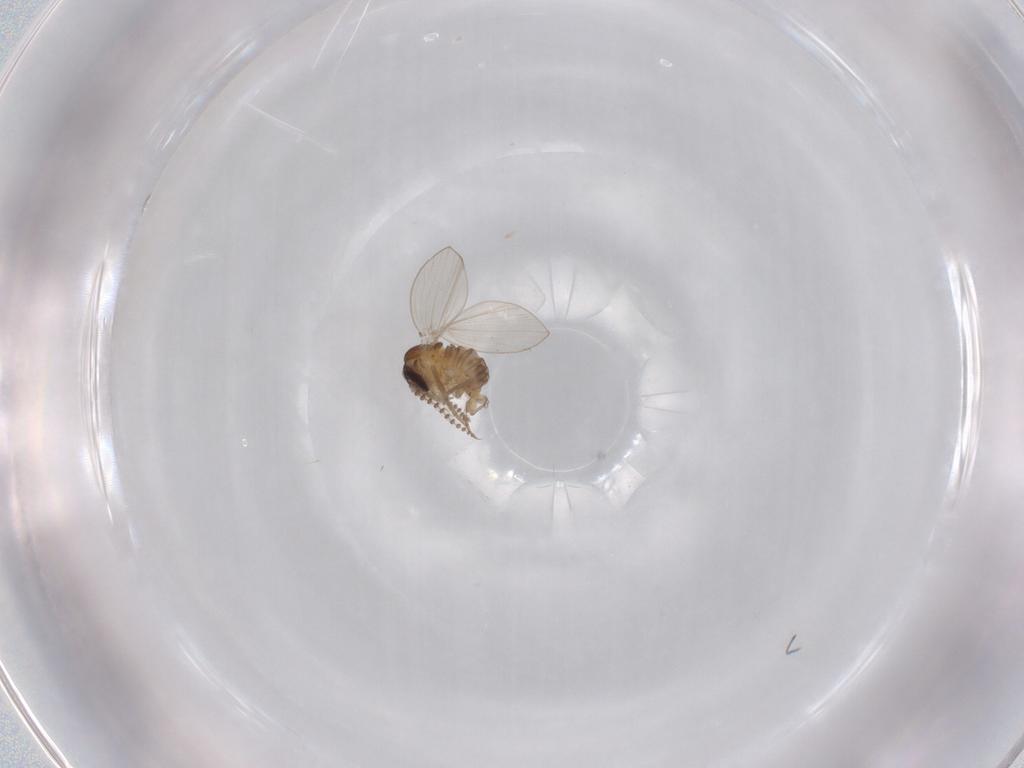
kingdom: Animalia
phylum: Arthropoda
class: Insecta
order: Diptera
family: Psychodidae
